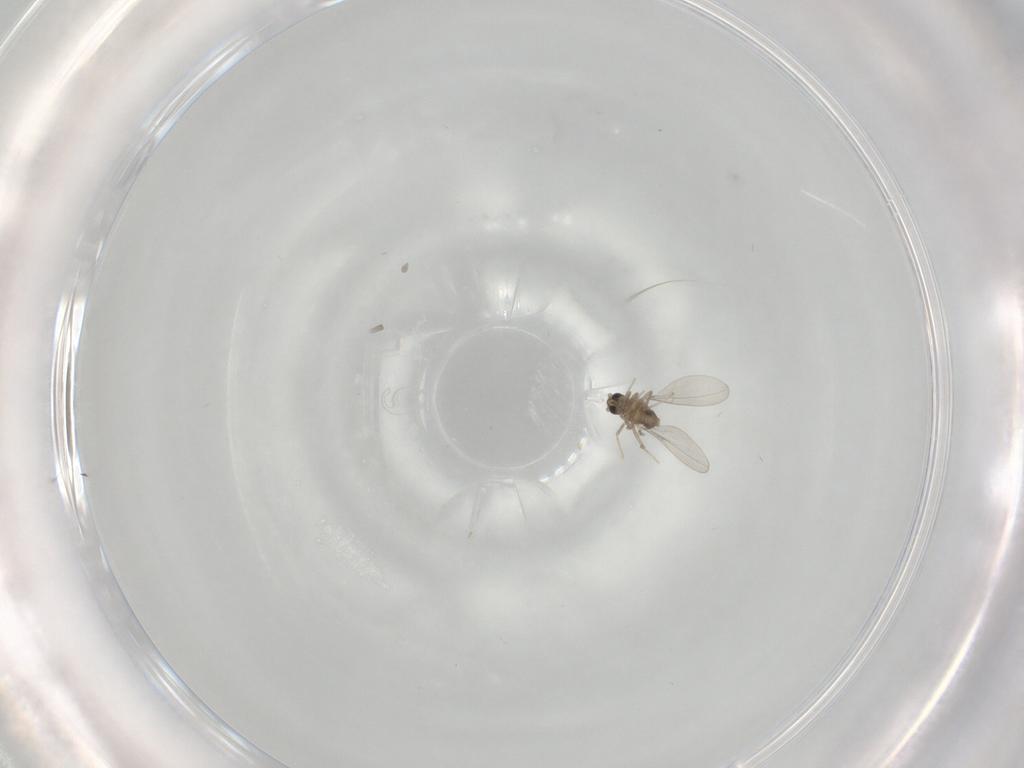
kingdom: Animalia
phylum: Arthropoda
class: Insecta
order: Diptera
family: Cecidomyiidae
